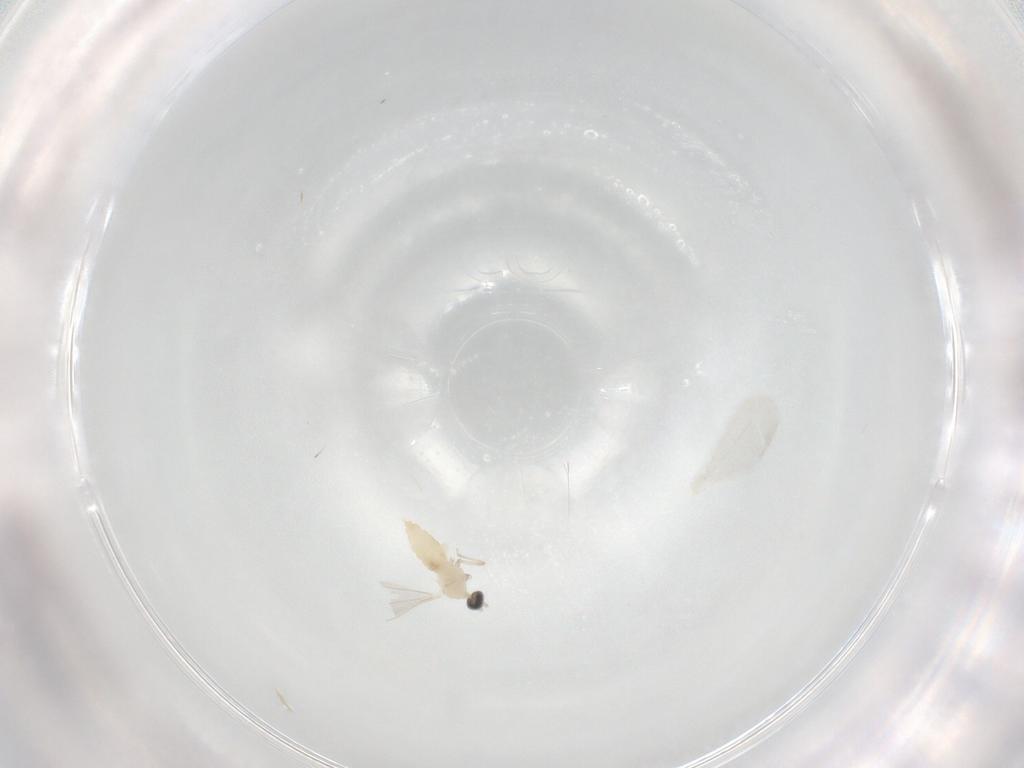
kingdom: Animalia
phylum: Arthropoda
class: Insecta
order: Diptera
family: Cecidomyiidae
